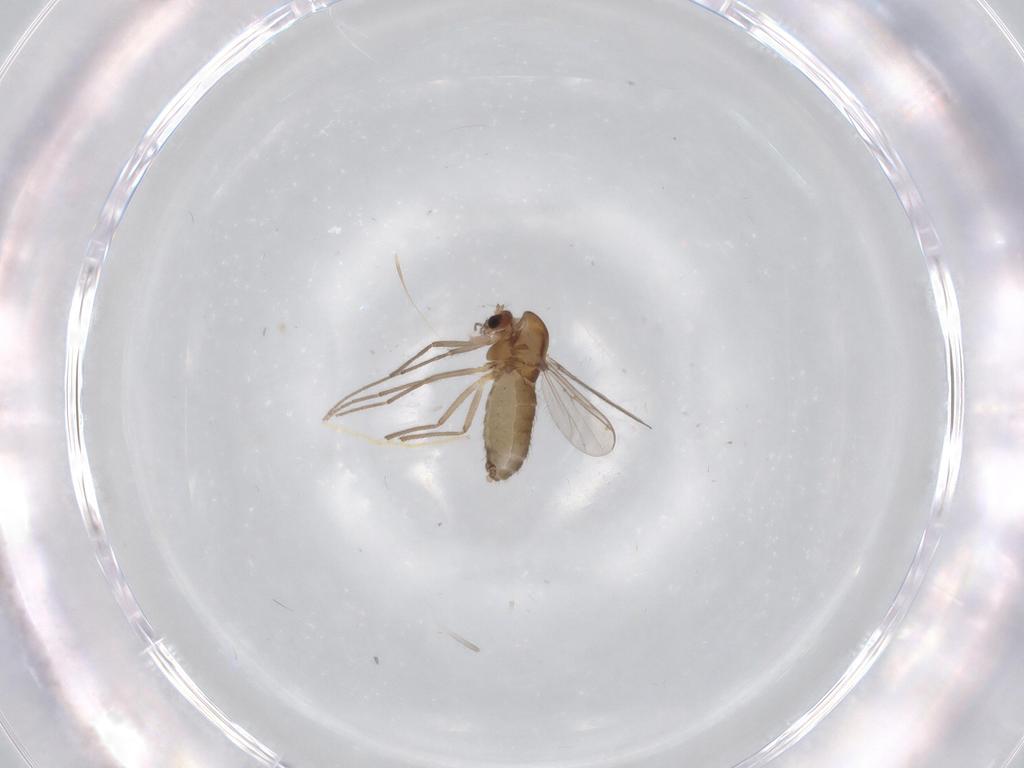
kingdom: Animalia
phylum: Arthropoda
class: Insecta
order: Diptera
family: Chironomidae
